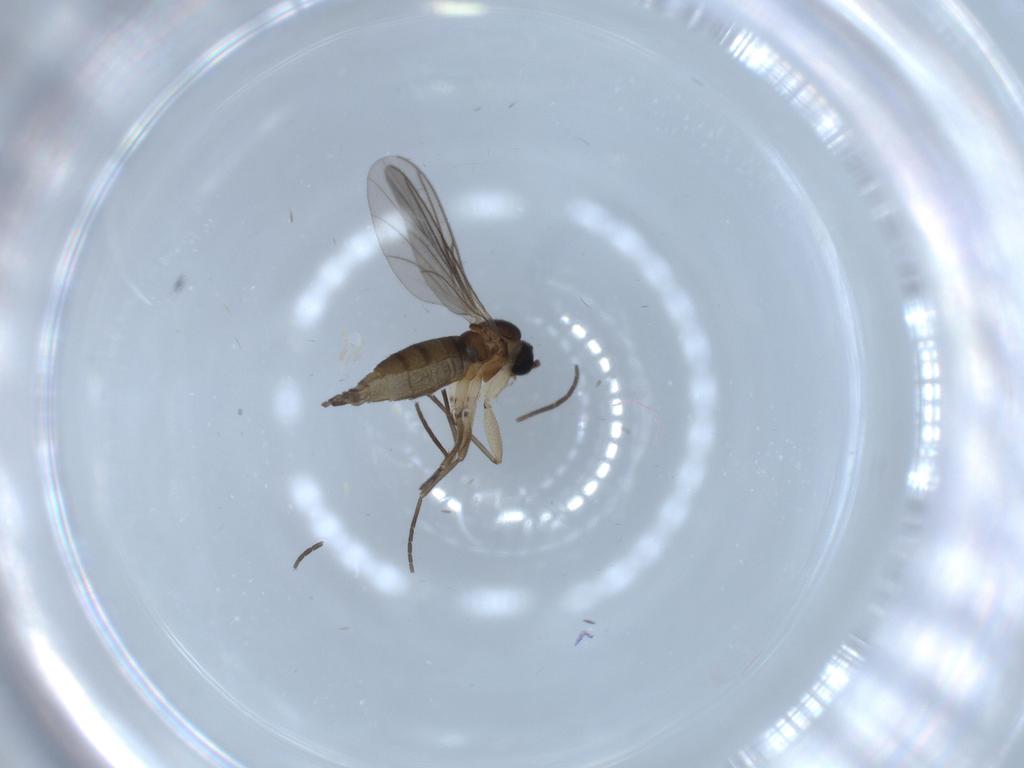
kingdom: Animalia
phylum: Arthropoda
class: Insecta
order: Diptera
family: Sciaridae
